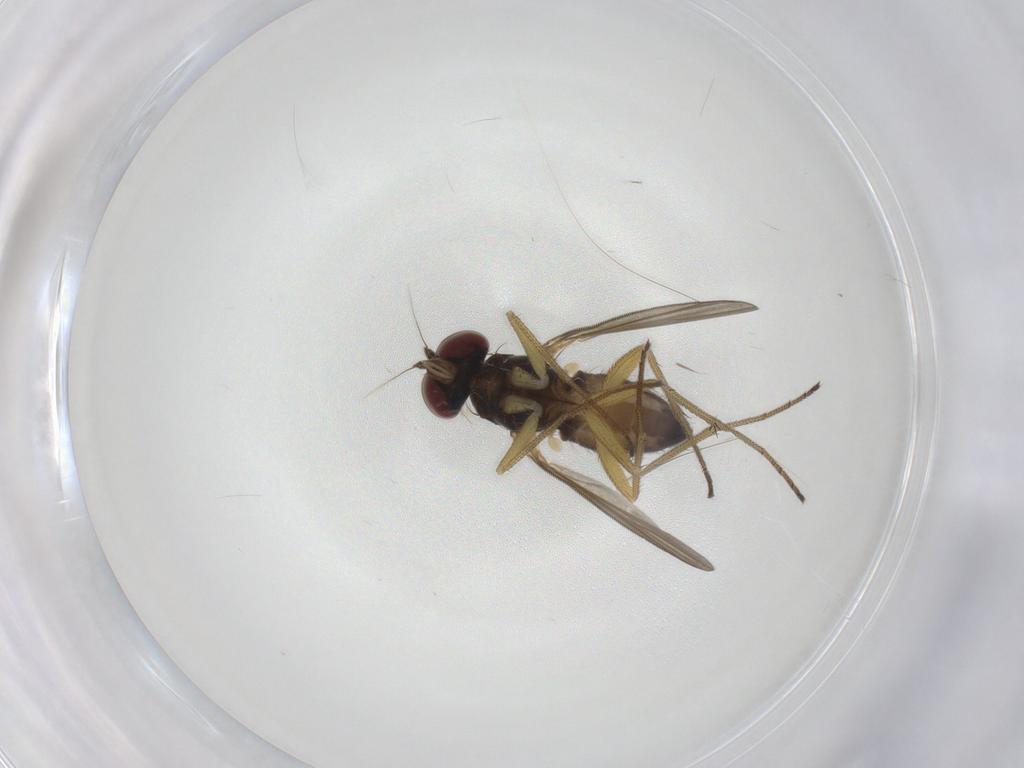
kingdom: Animalia
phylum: Arthropoda
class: Insecta
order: Diptera
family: Dolichopodidae
